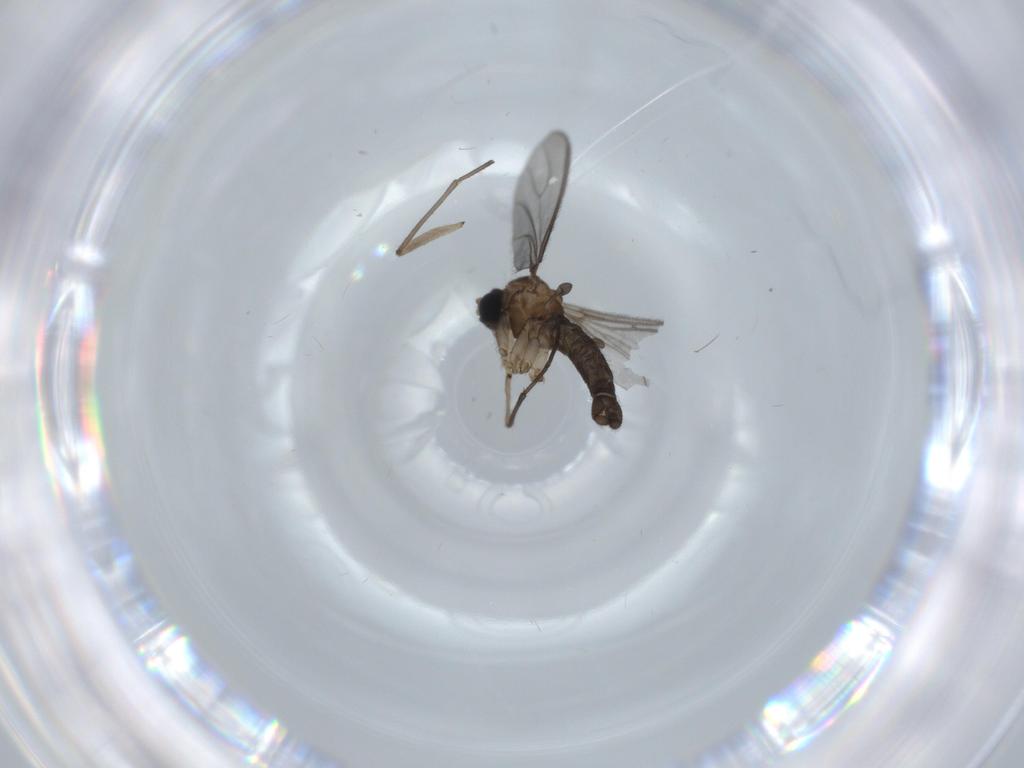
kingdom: Animalia
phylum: Arthropoda
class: Insecta
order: Diptera
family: Sciaridae
